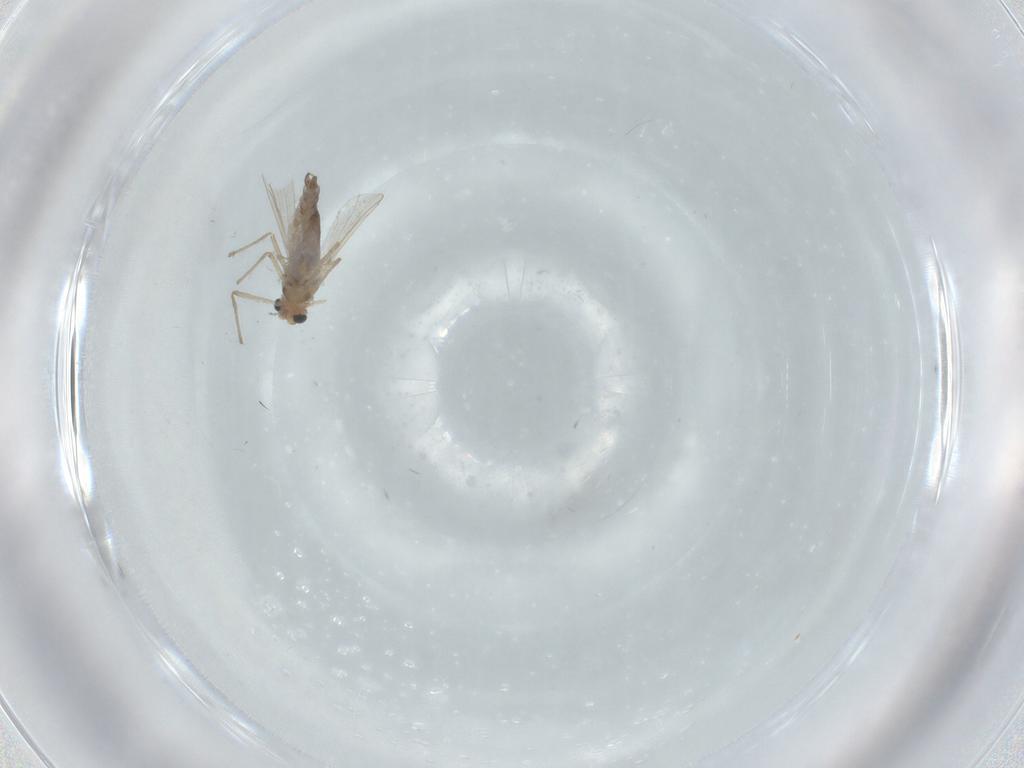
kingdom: Animalia
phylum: Arthropoda
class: Insecta
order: Diptera
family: Chironomidae
